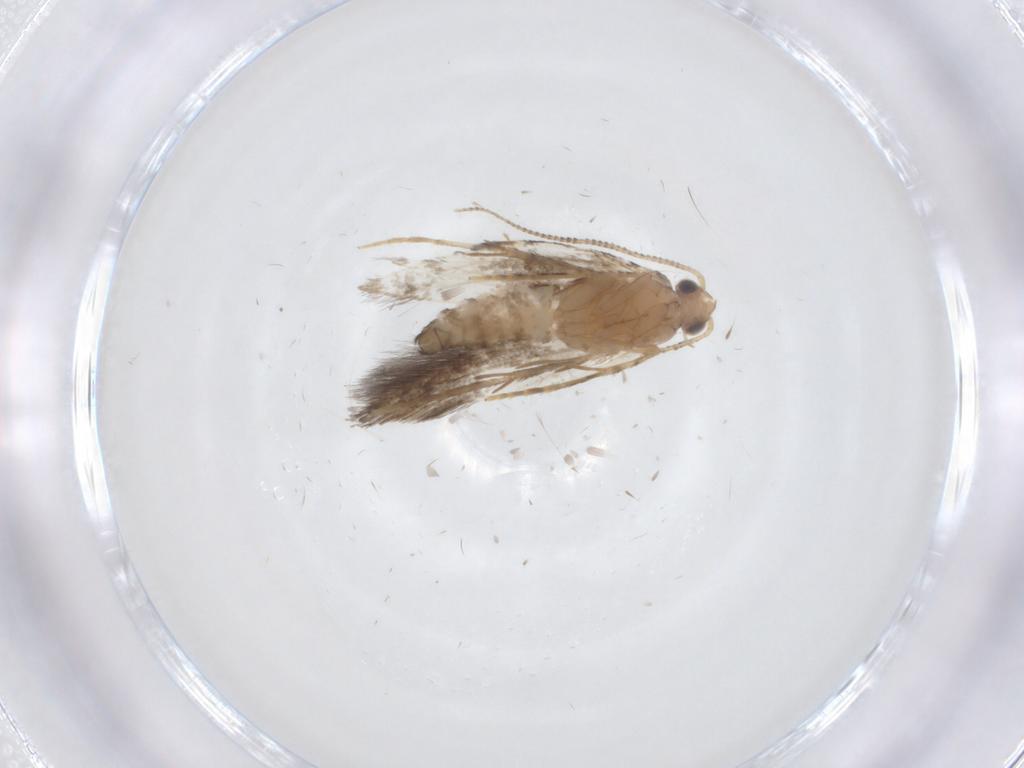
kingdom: Animalia
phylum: Arthropoda
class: Insecta
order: Lepidoptera
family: Tineidae
